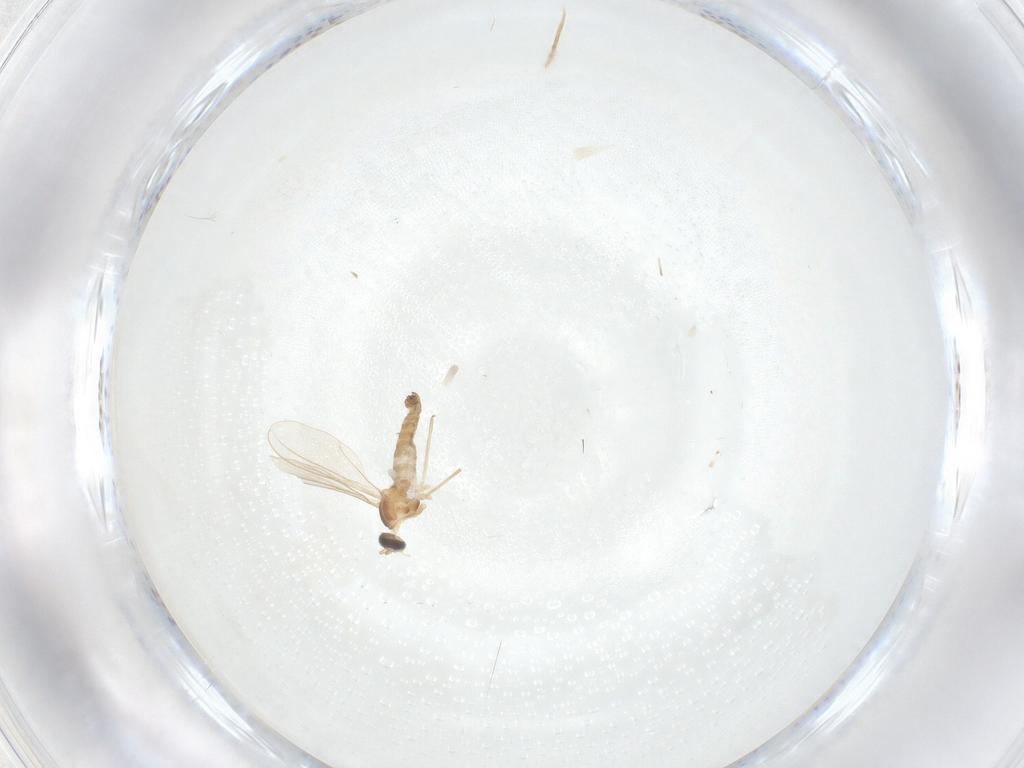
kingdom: Animalia
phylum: Arthropoda
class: Insecta
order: Diptera
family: Cecidomyiidae
